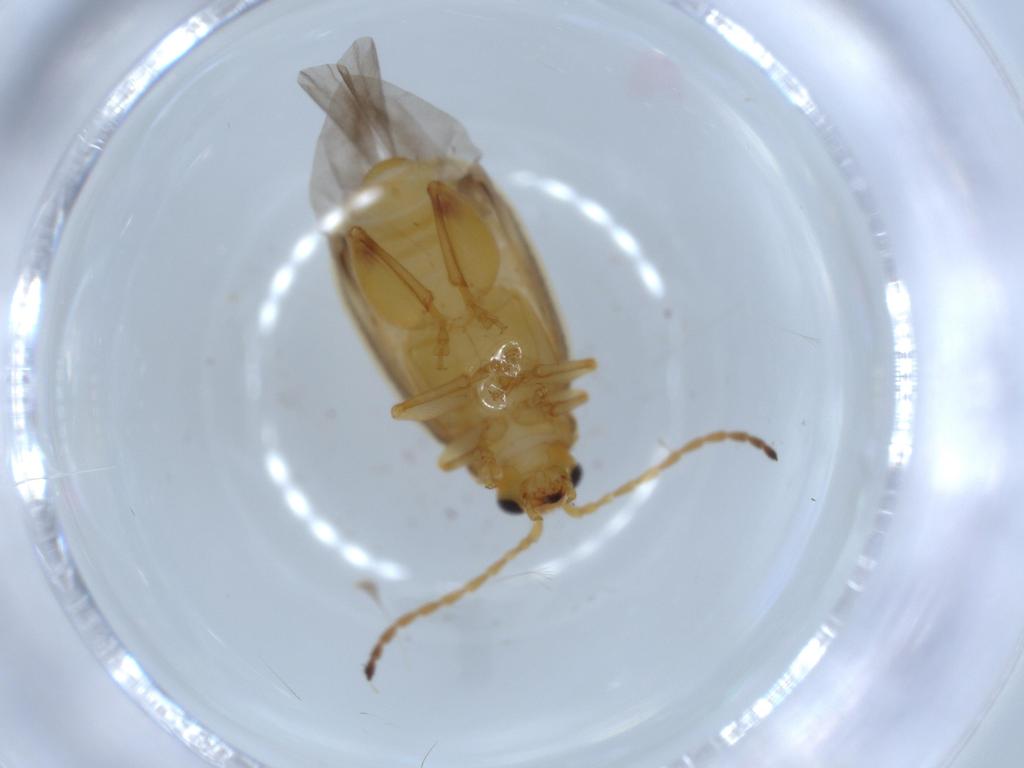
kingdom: Animalia
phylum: Arthropoda
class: Insecta
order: Coleoptera
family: Chrysomelidae
